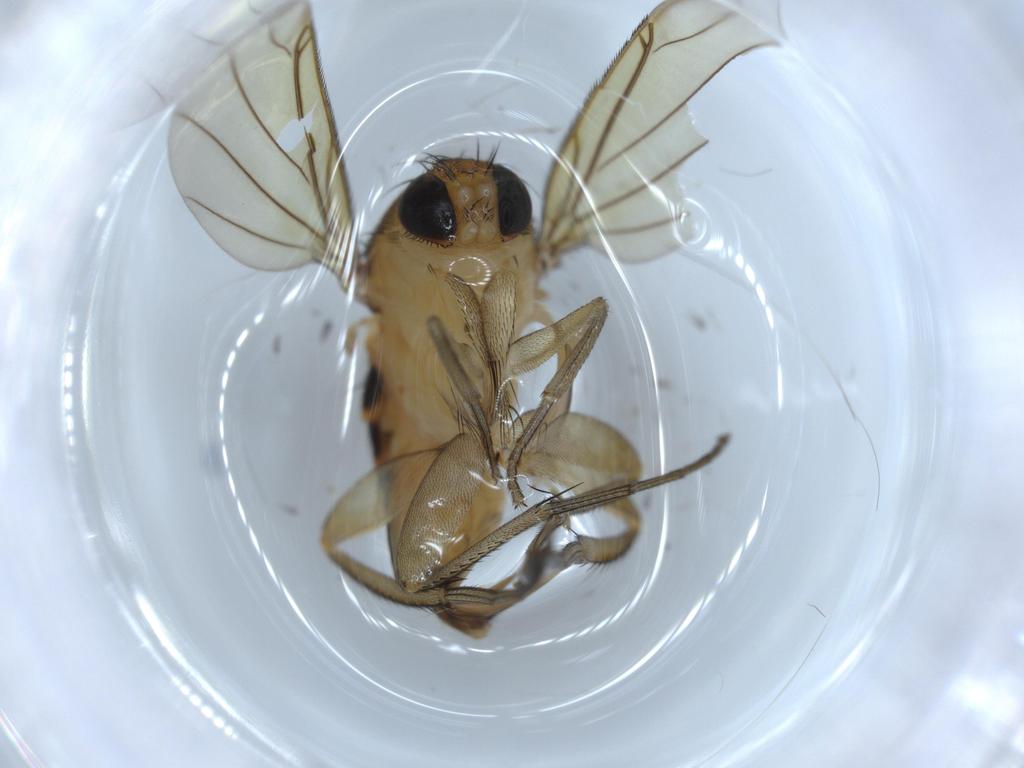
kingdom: Animalia
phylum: Arthropoda
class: Insecta
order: Diptera
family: Phoridae
